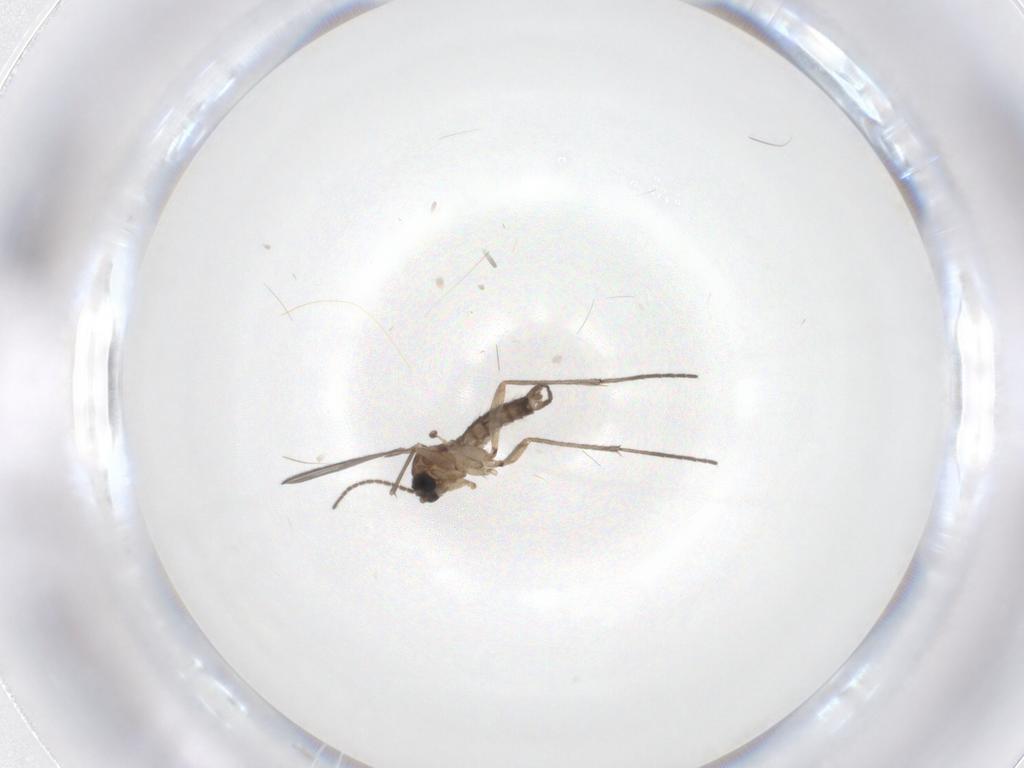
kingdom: Animalia
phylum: Arthropoda
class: Insecta
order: Diptera
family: Sciaridae
